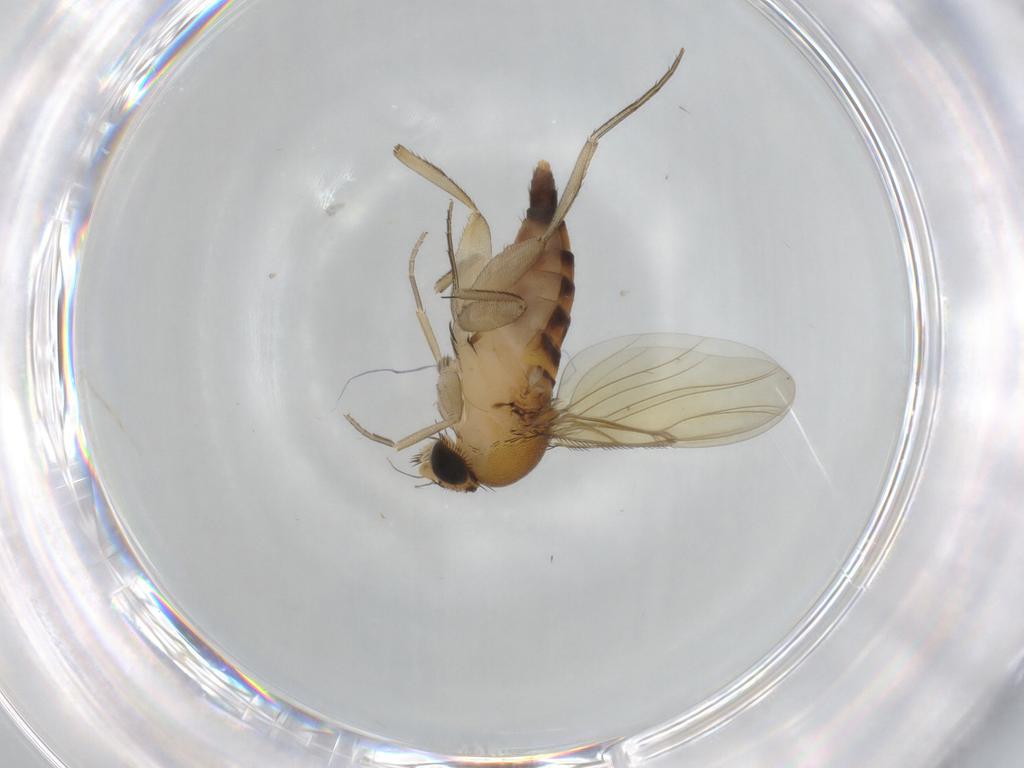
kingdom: Animalia
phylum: Arthropoda
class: Insecta
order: Diptera
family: Phoridae
